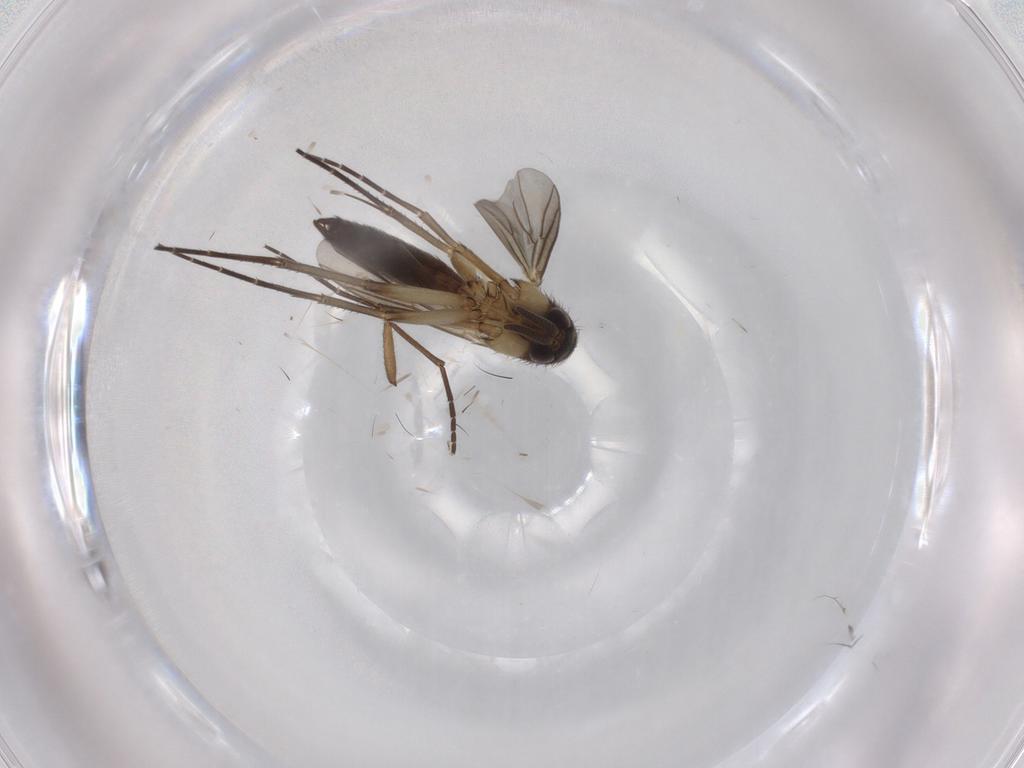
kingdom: Animalia
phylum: Arthropoda
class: Insecta
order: Diptera
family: Mycetophilidae
